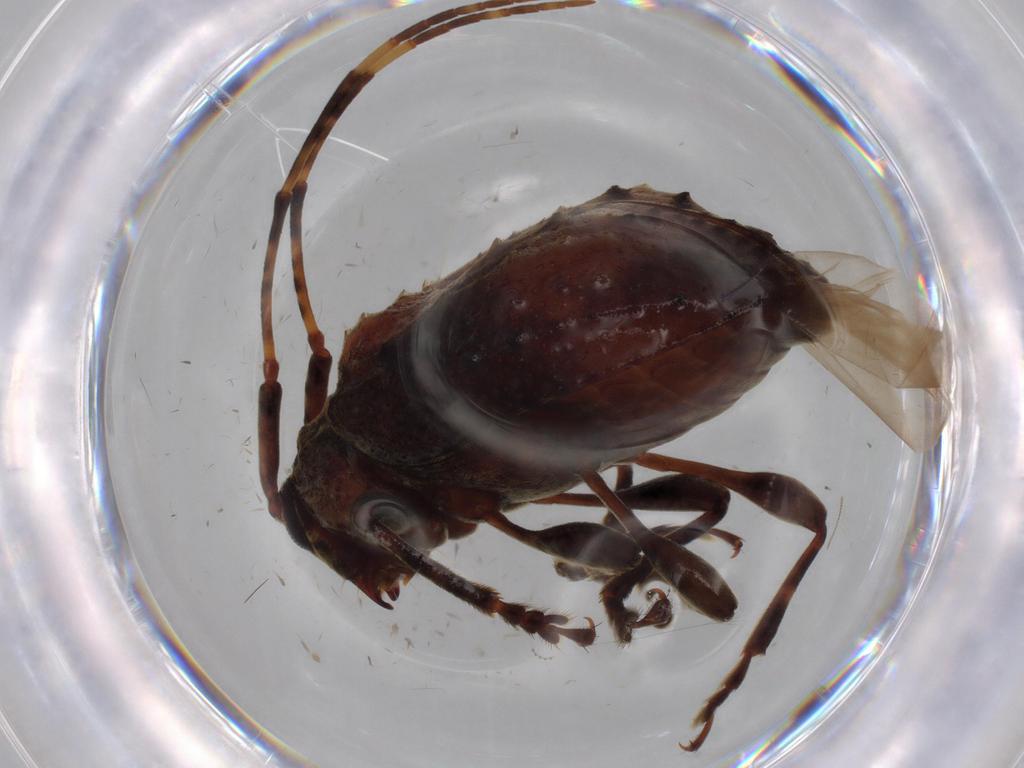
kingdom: Animalia
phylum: Arthropoda
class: Insecta
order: Coleoptera
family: Cerambycidae
